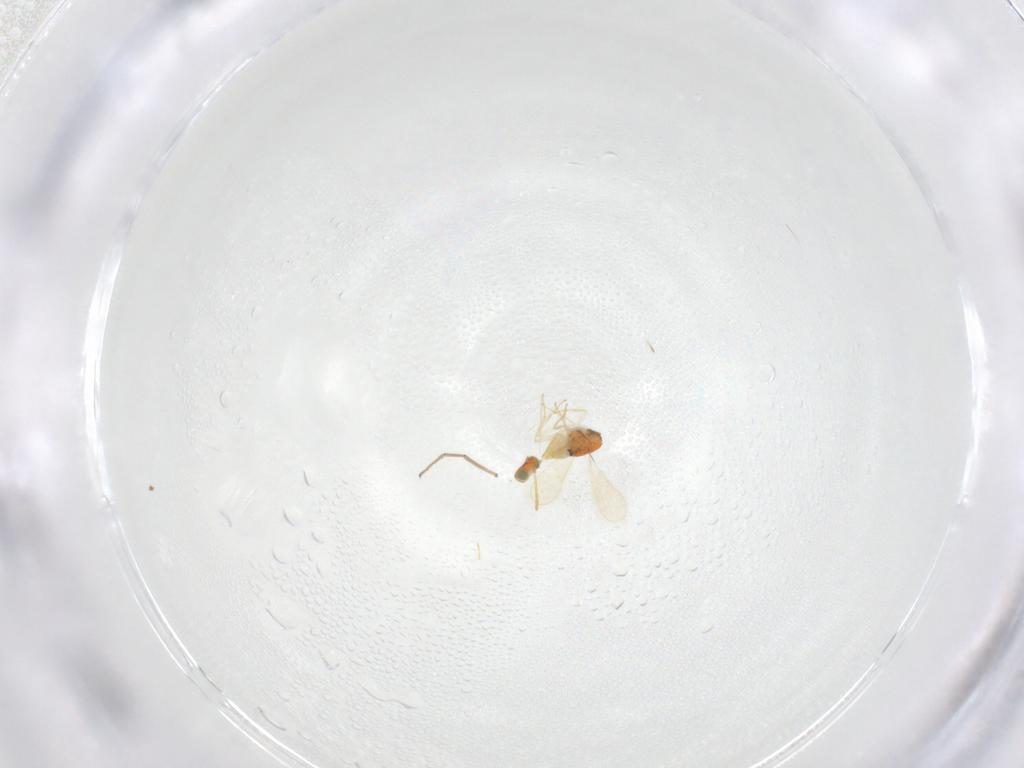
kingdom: Animalia
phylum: Arthropoda
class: Insecta
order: Hymenoptera
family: Aphelinidae
